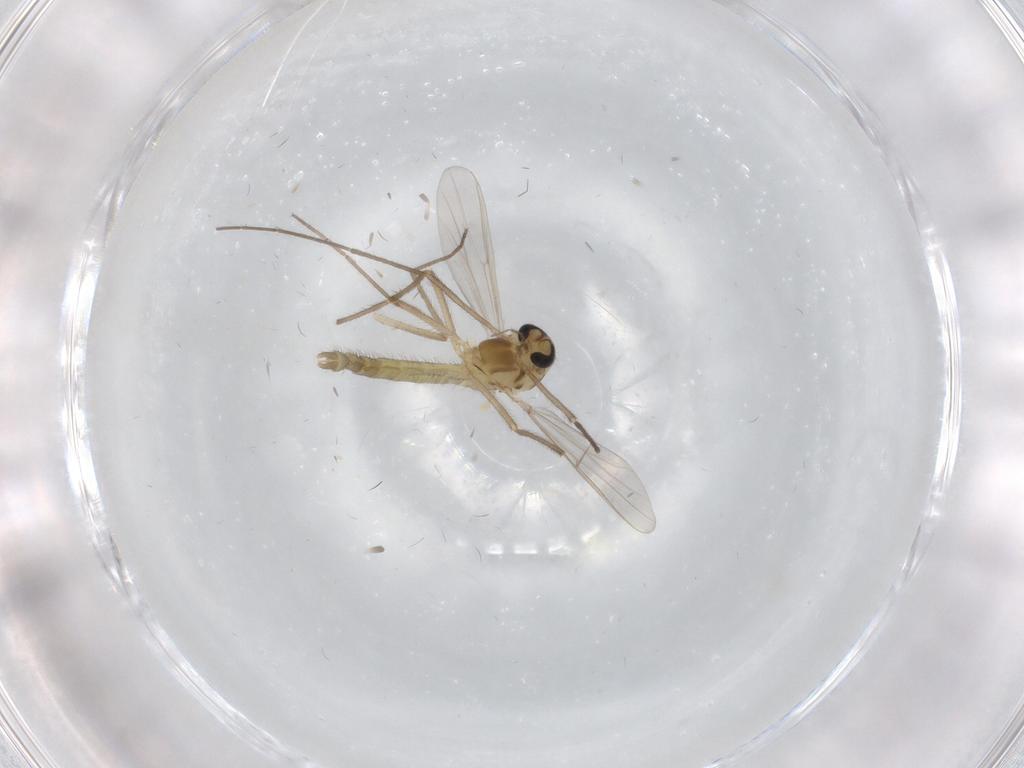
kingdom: Animalia
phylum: Arthropoda
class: Insecta
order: Diptera
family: Chironomidae
